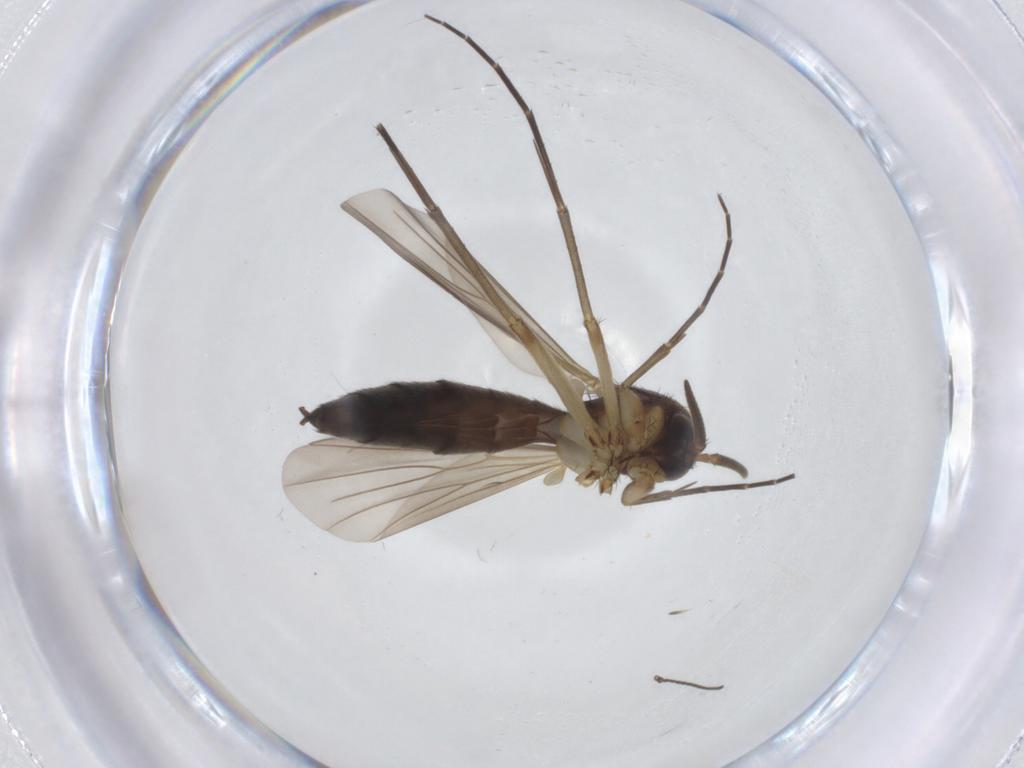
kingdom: Animalia
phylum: Arthropoda
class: Insecta
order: Diptera
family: Mycetophilidae
